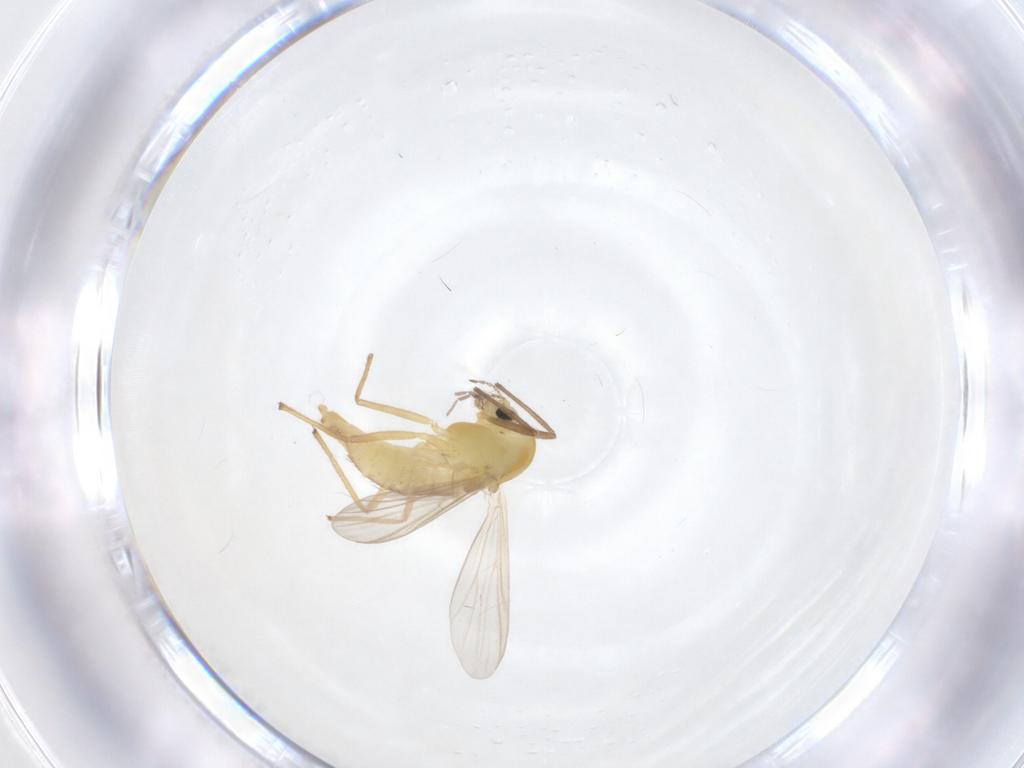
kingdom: Animalia
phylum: Arthropoda
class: Insecta
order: Diptera
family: Chironomidae
